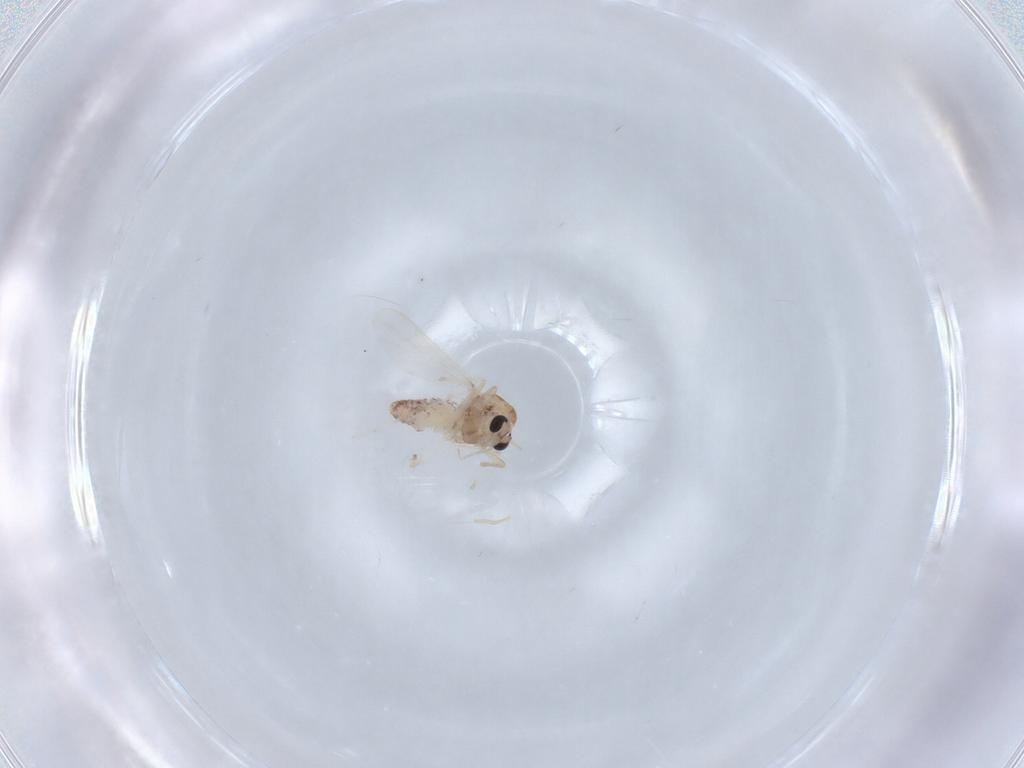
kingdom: Animalia
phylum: Arthropoda
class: Insecta
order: Diptera
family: Chironomidae
